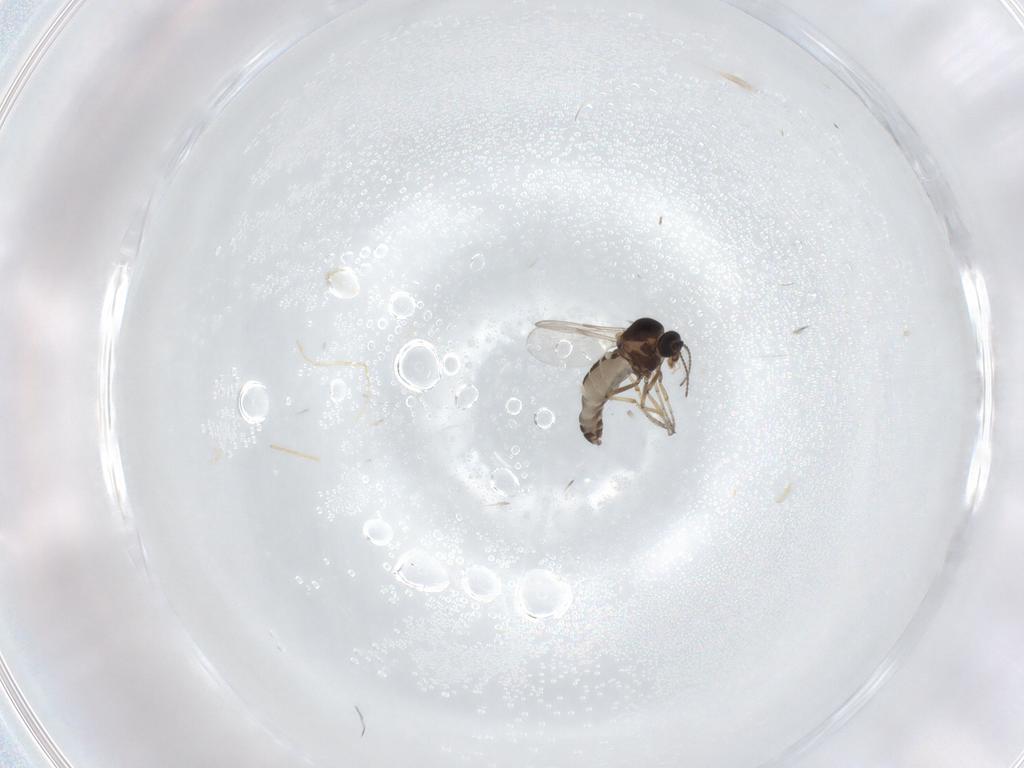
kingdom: Animalia
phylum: Arthropoda
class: Insecta
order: Diptera
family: Ceratopogonidae
